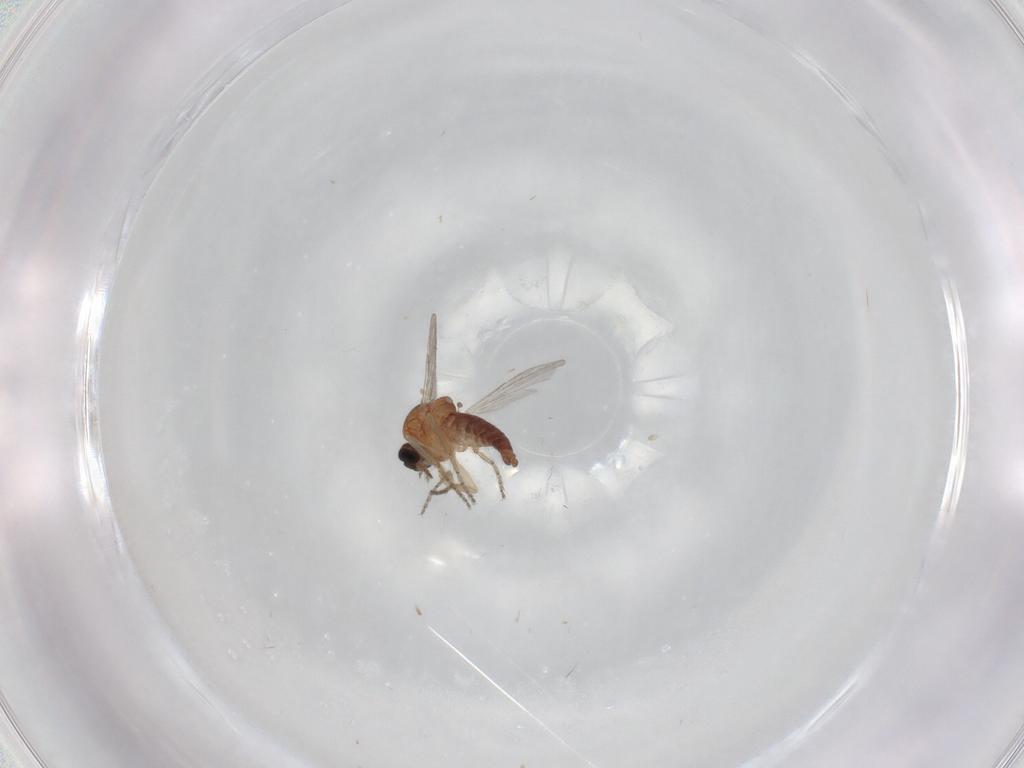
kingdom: Animalia
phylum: Arthropoda
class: Insecta
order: Diptera
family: Ceratopogonidae
